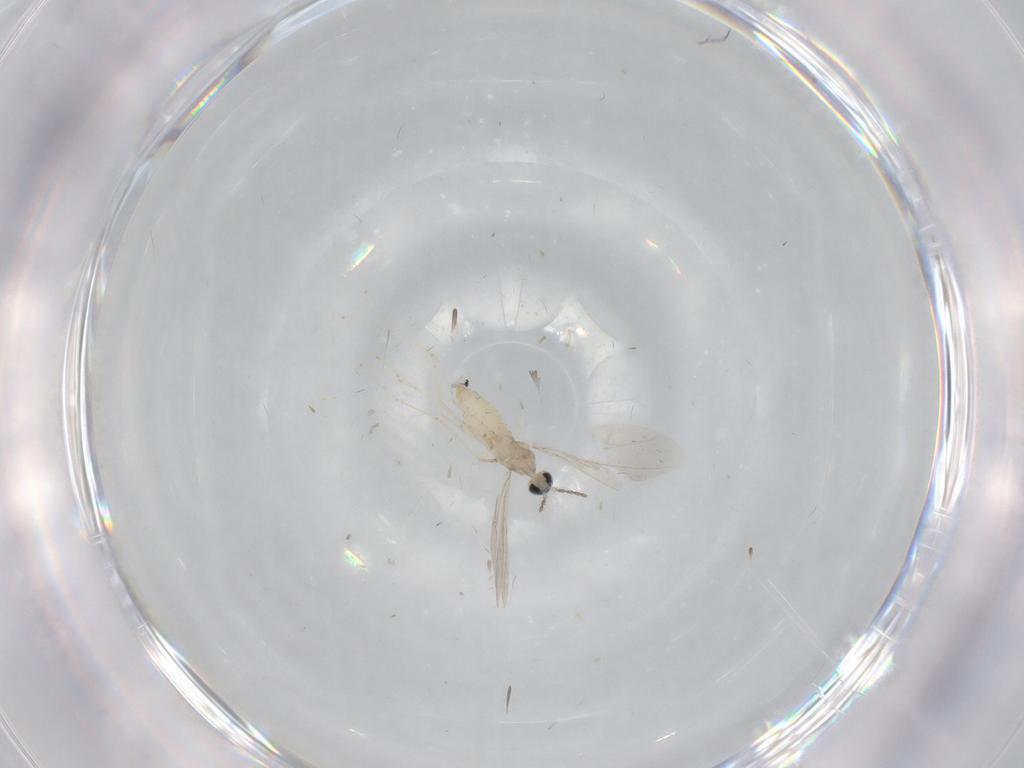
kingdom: Animalia
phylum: Arthropoda
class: Insecta
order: Diptera
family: Cecidomyiidae
